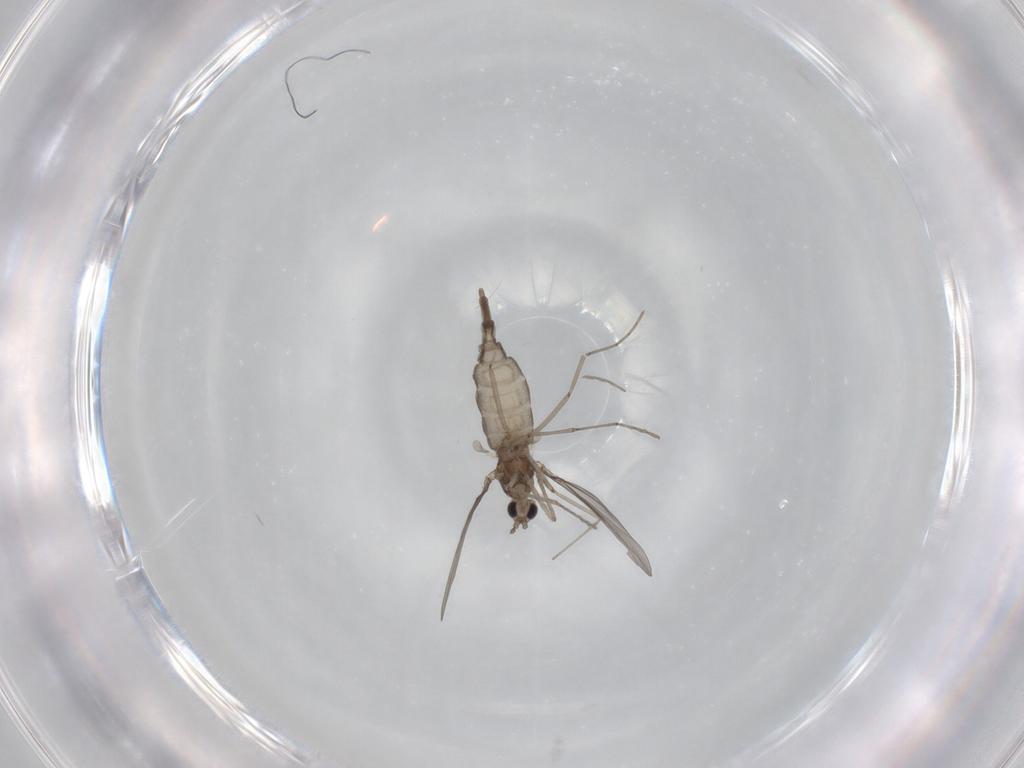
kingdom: Animalia
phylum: Arthropoda
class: Insecta
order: Diptera
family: Cecidomyiidae
